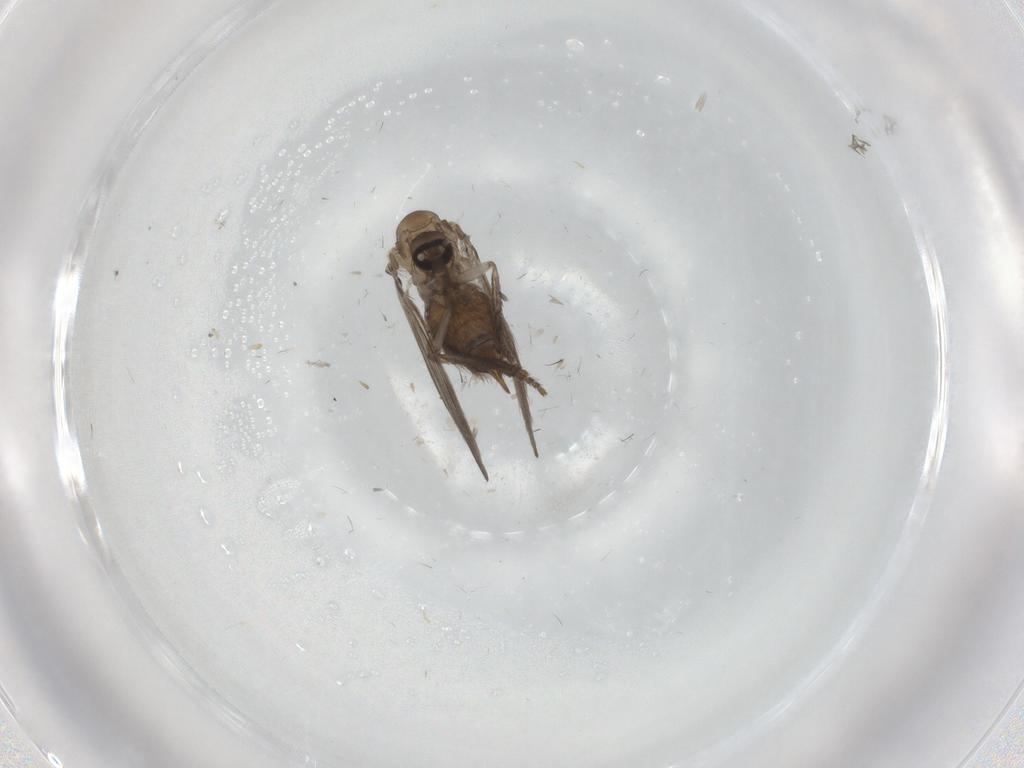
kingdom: Animalia
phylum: Arthropoda
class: Insecta
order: Diptera
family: Psychodidae
